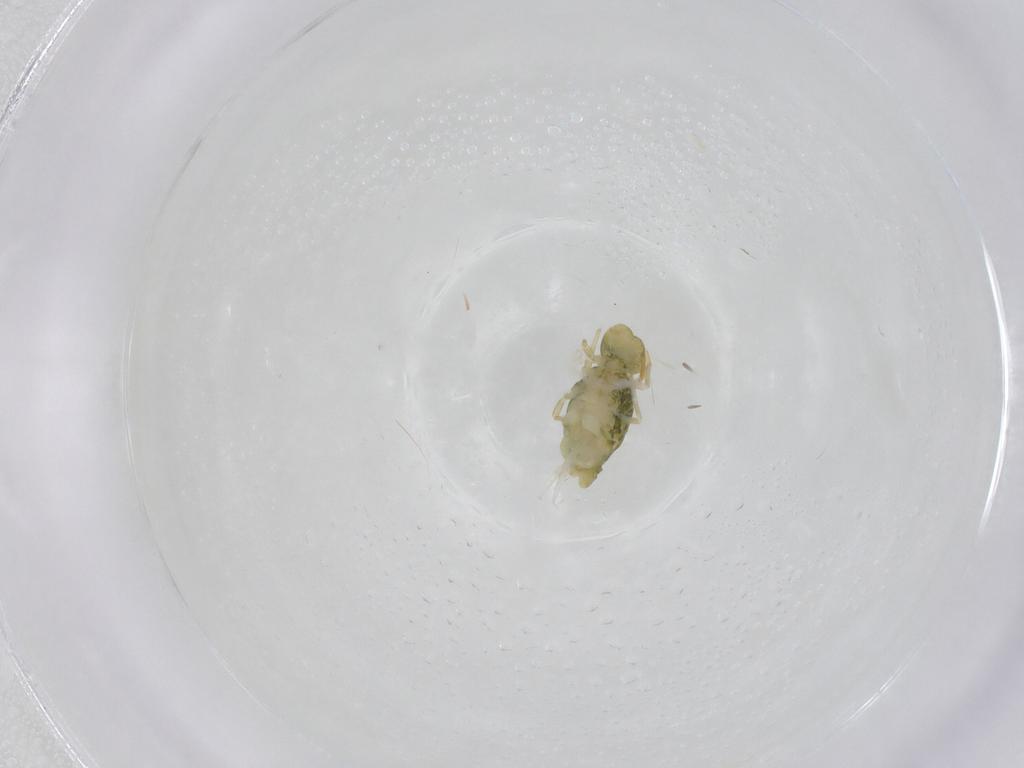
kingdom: Animalia
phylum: Arthropoda
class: Collembola
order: Symphypleona
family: Katiannidae
